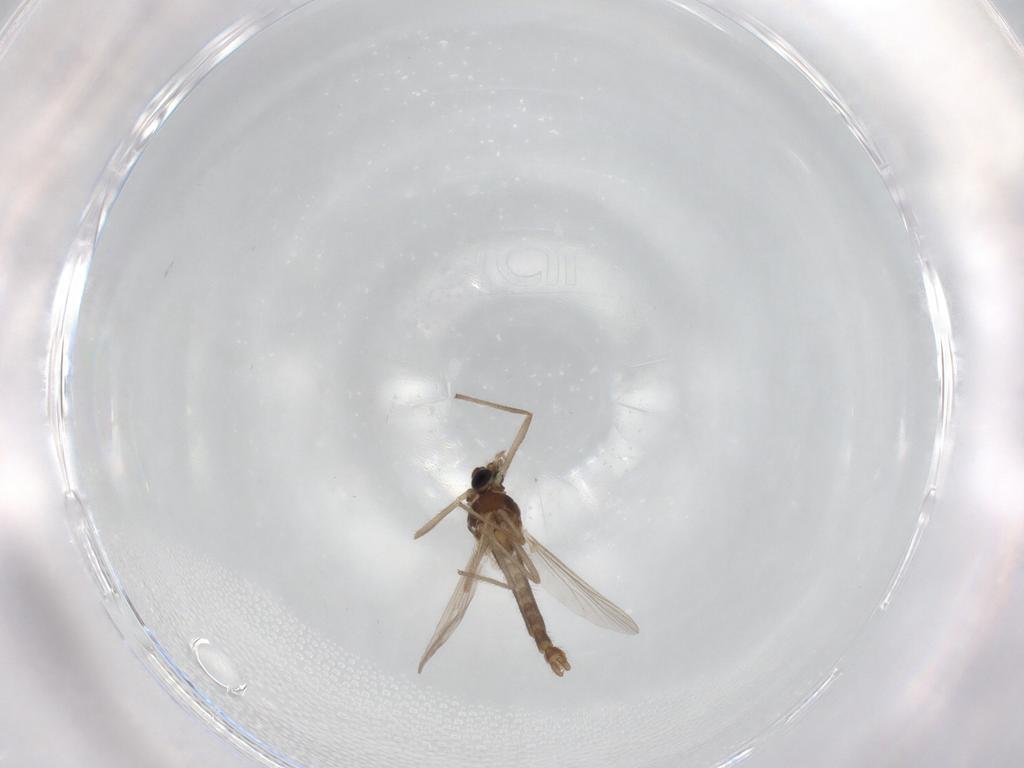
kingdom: Animalia
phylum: Arthropoda
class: Insecta
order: Diptera
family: Chironomidae
